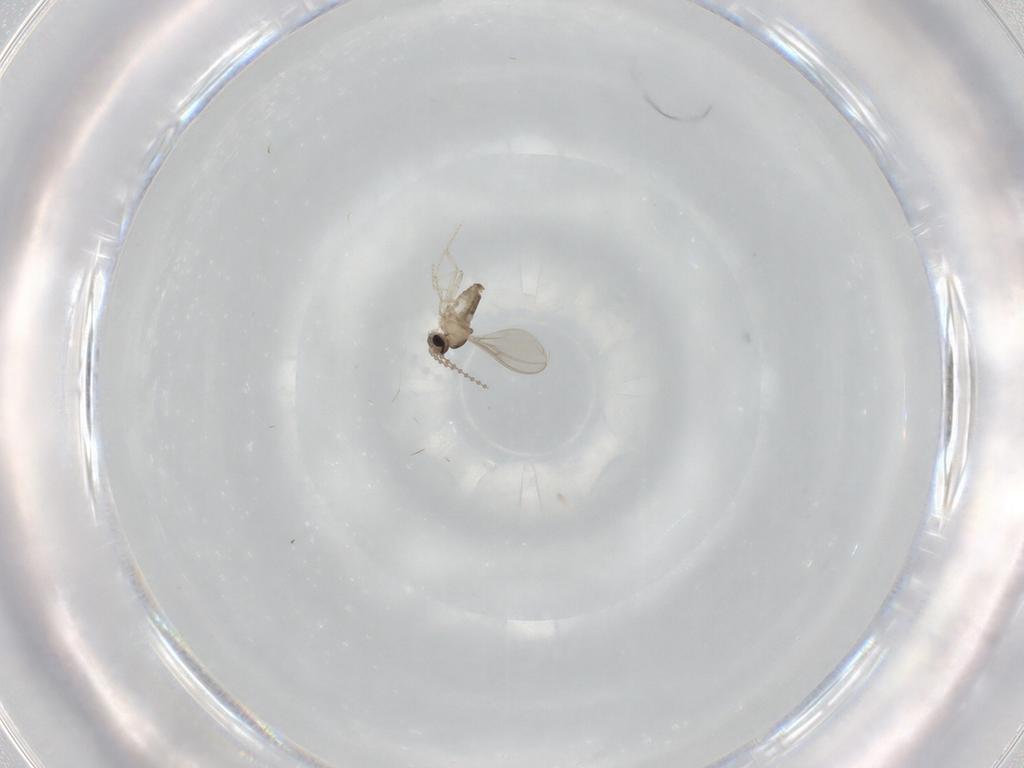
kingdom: Animalia
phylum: Arthropoda
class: Insecta
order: Diptera
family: Cecidomyiidae
